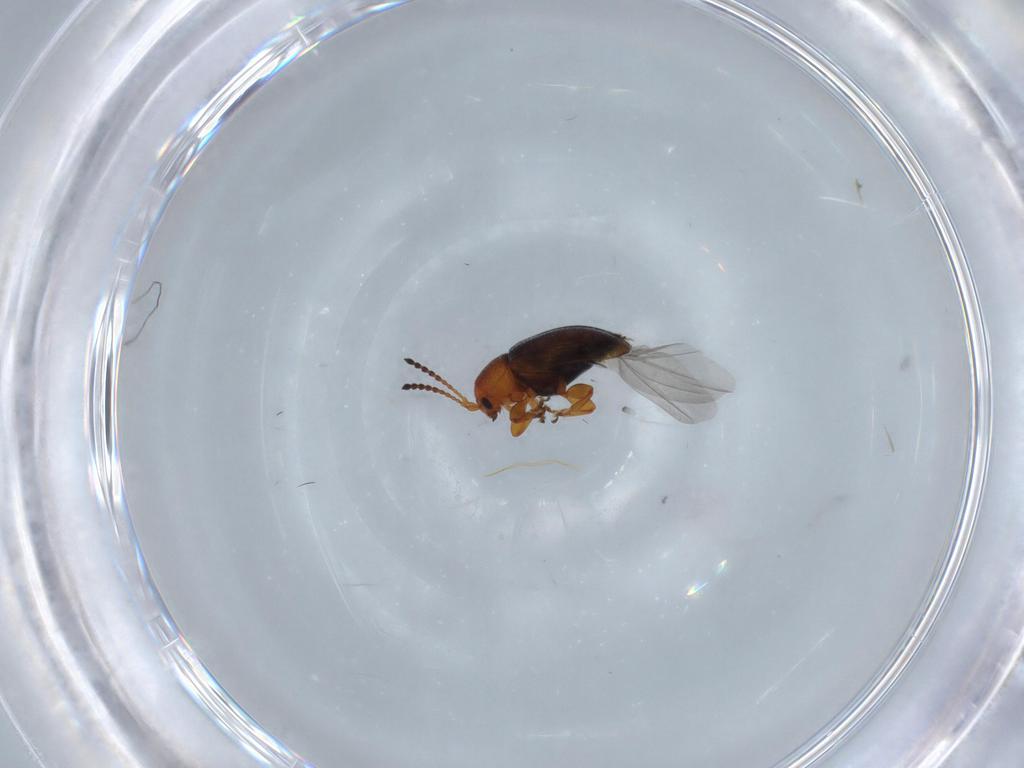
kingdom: Animalia
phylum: Arthropoda
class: Insecta
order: Coleoptera
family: Chrysomelidae
